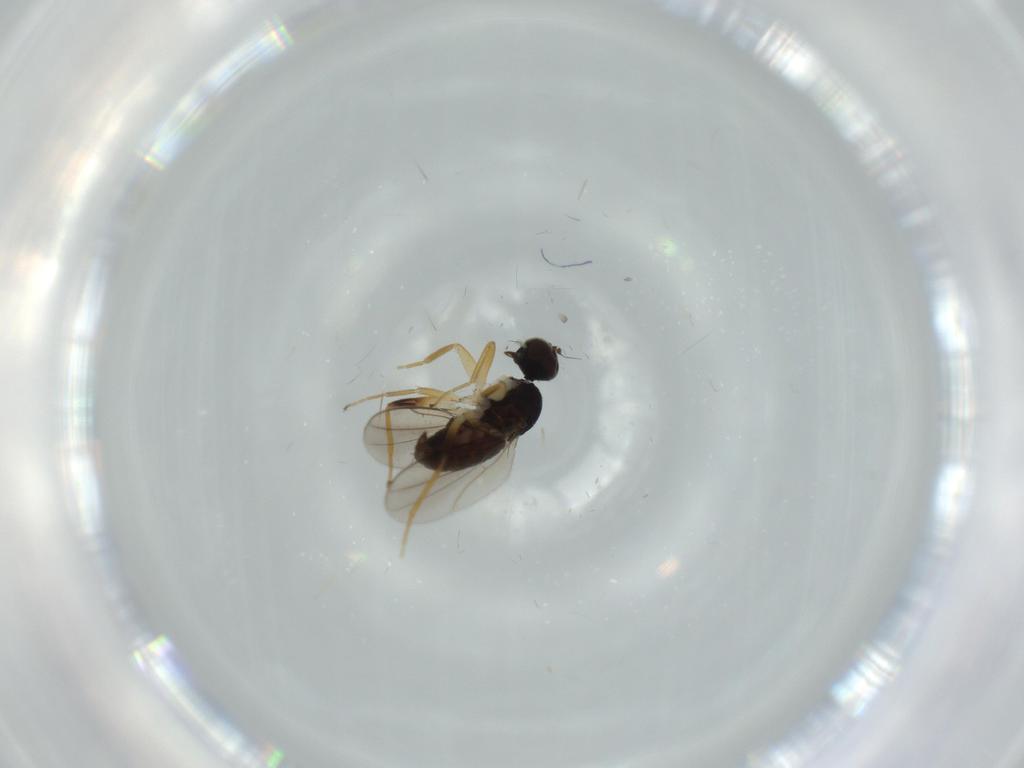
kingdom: Animalia
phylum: Arthropoda
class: Insecta
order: Diptera
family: Hybotidae
